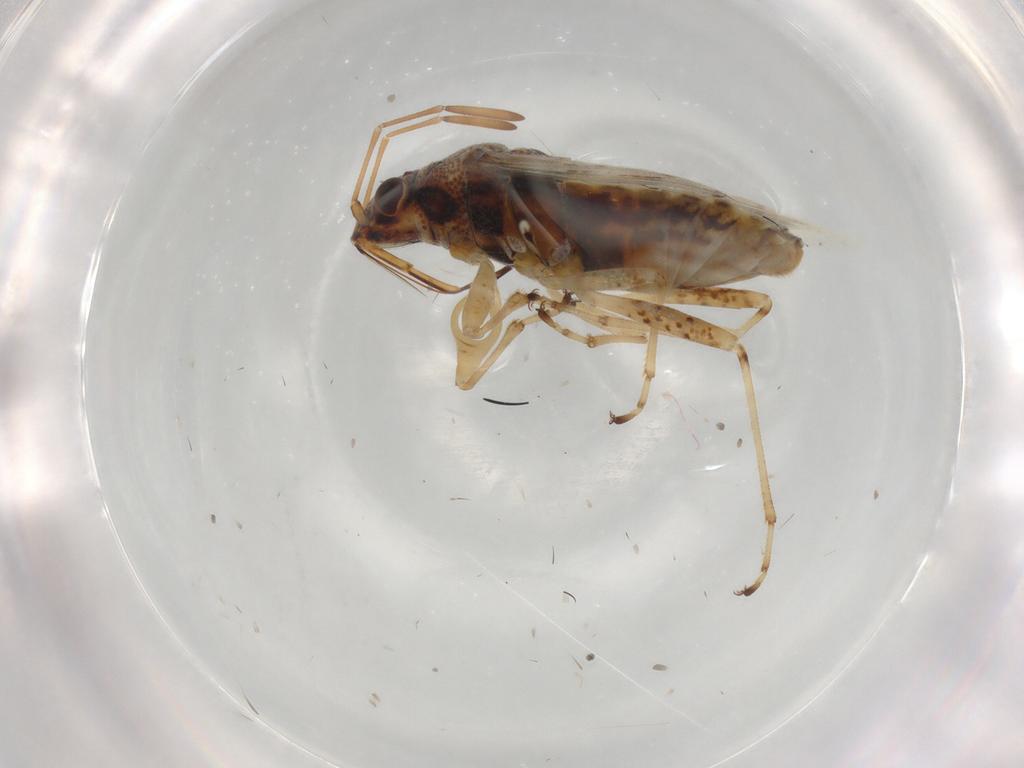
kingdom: Animalia
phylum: Arthropoda
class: Insecta
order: Hemiptera
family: Lygaeidae
